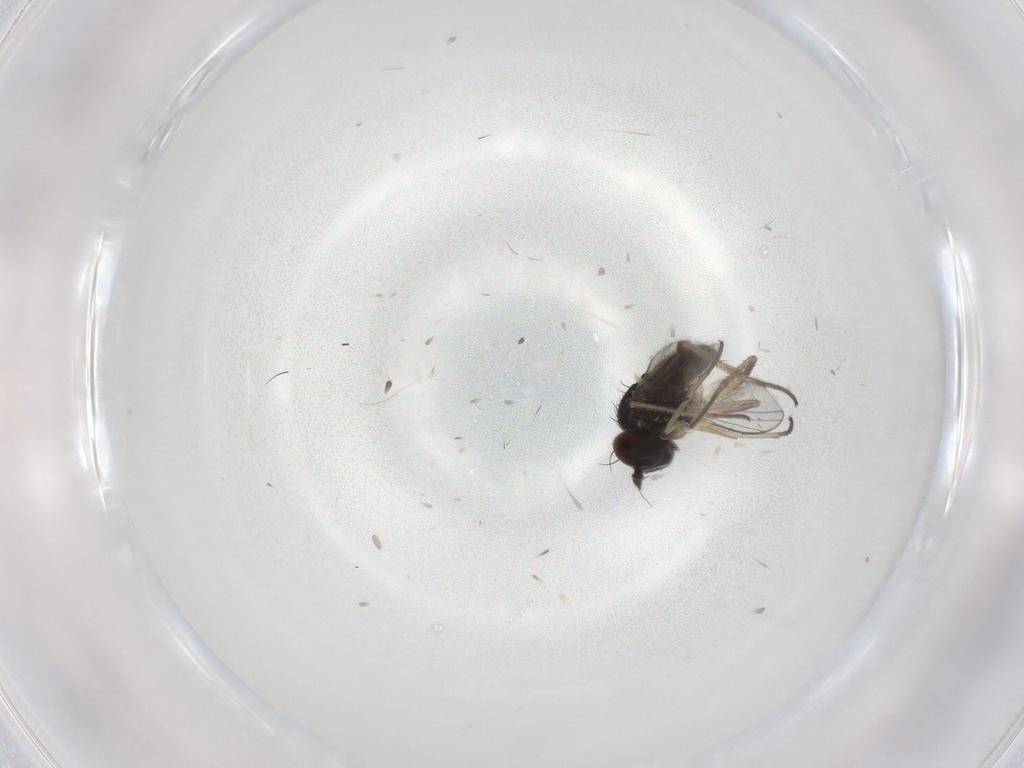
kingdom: Animalia
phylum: Arthropoda
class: Insecta
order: Diptera
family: Dolichopodidae
